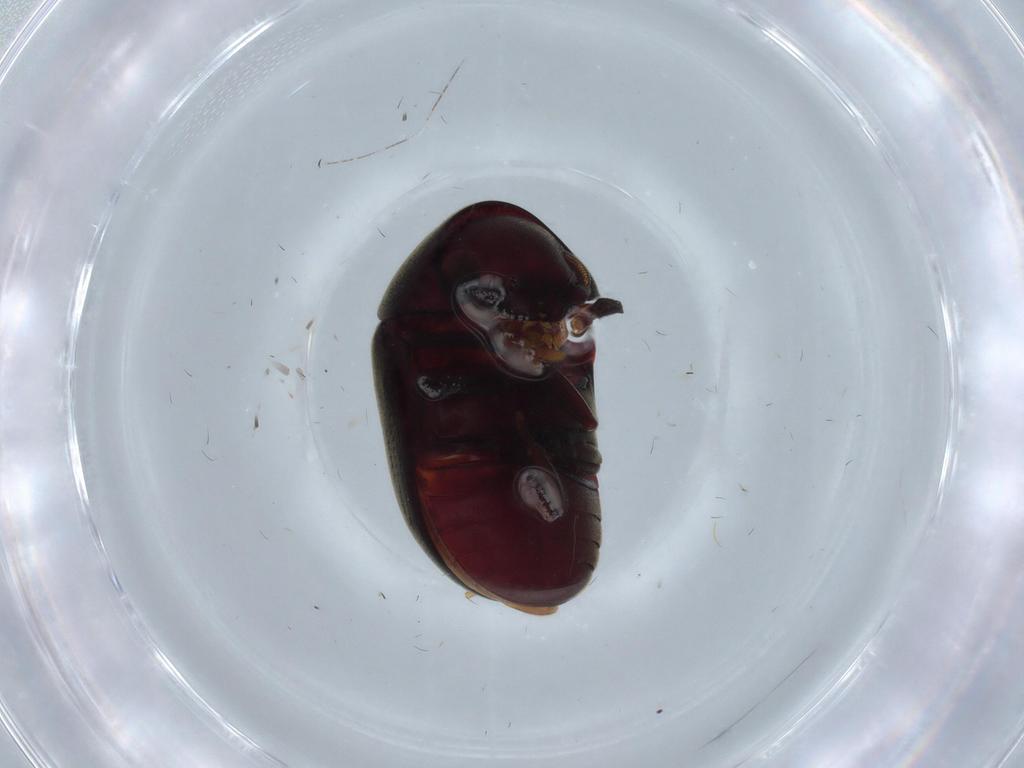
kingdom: Animalia
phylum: Arthropoda
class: Insecta
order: Coleoptera
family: Ptinidae
